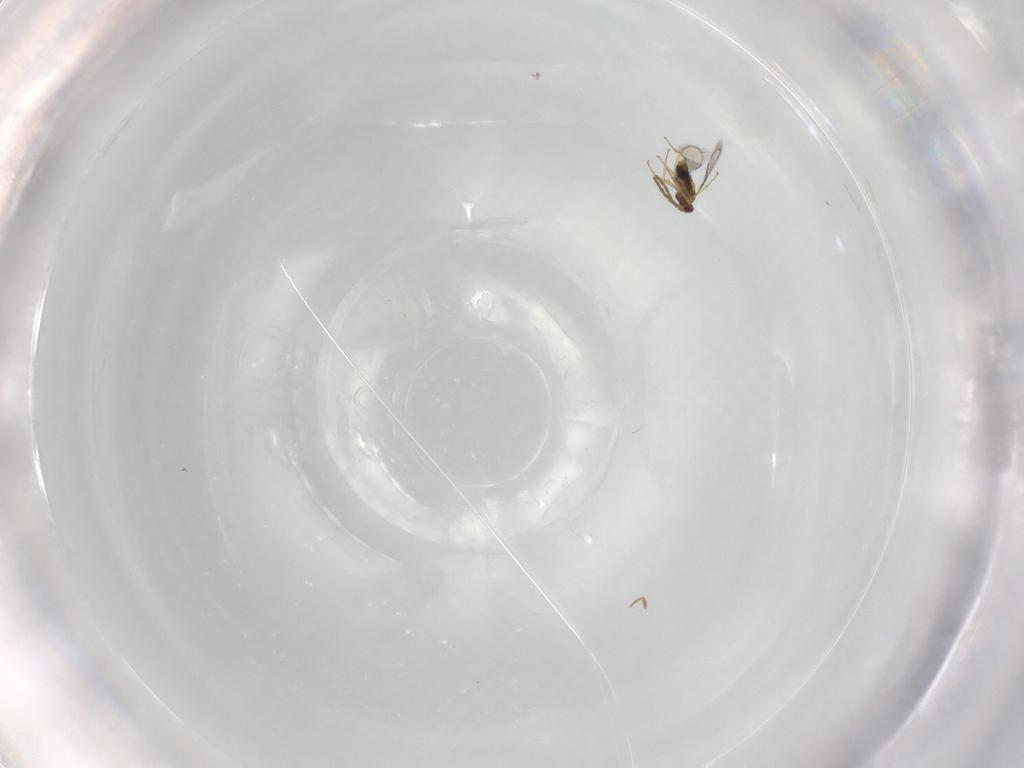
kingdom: Animalia
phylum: Arthropoda
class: Insecta
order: Hymenoptera
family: Aphelinidae
